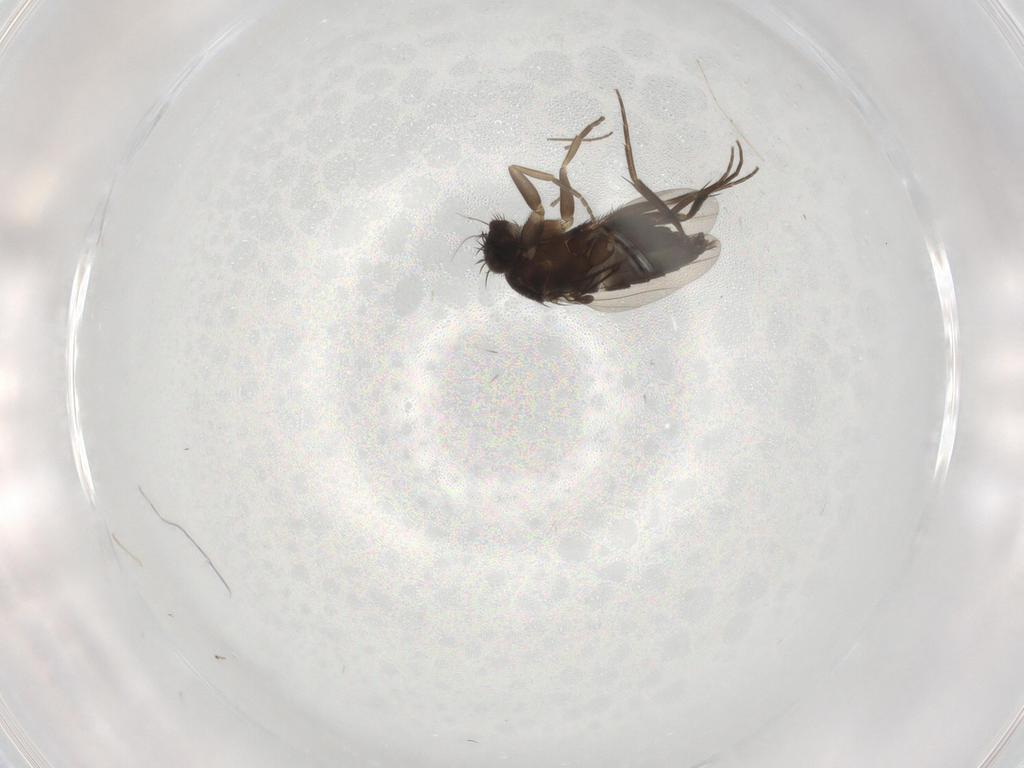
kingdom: Animalia
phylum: Arthropoda
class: Insecta
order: Diptera
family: Phoridae
